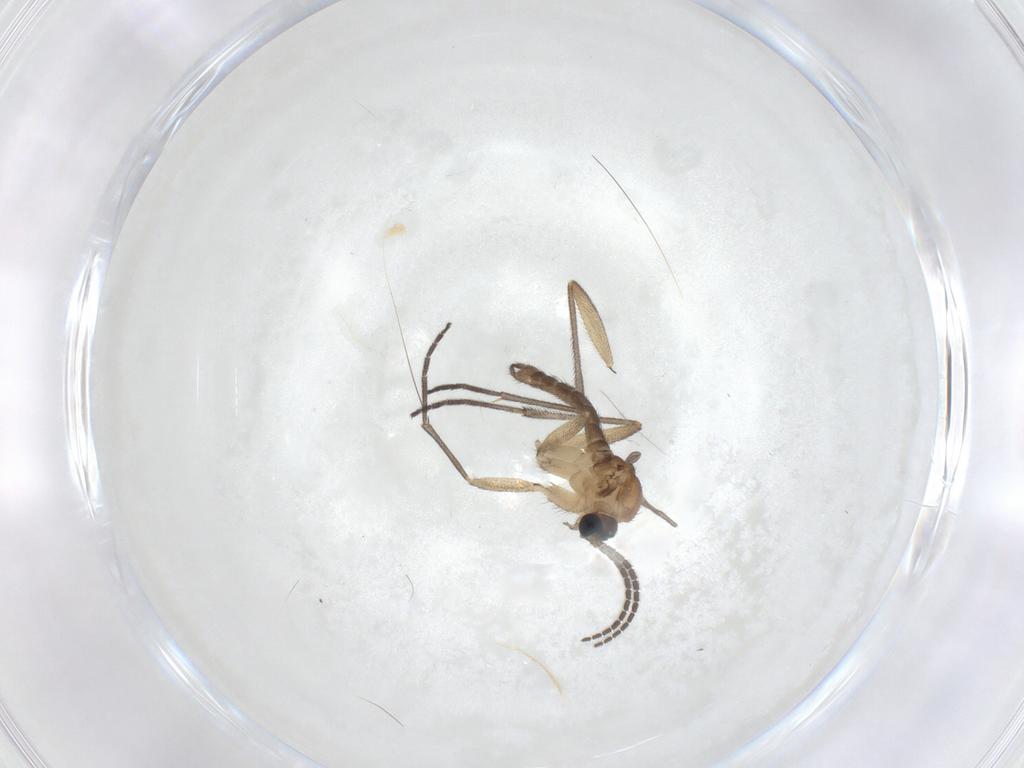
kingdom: Animalia
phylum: Arthropoda
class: Insecta
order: Diptera
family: Sciaridae
